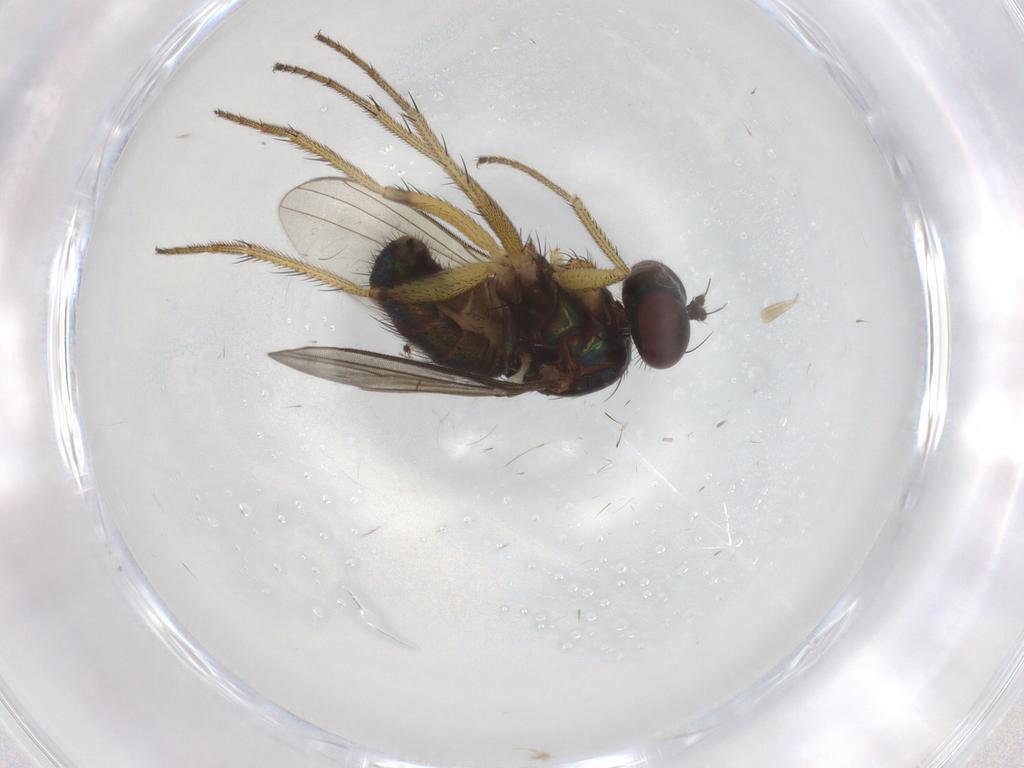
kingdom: Animalia
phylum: Arthropoda
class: Insecta
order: Diptera
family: Dolichopodidae
